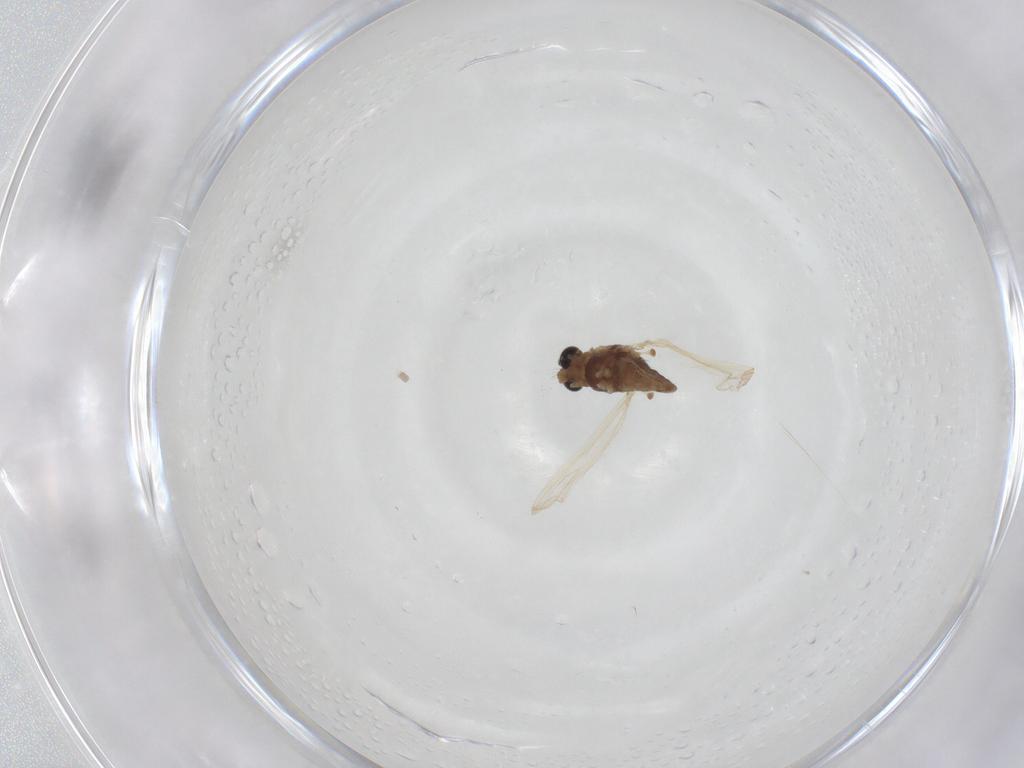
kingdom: Animalia
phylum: Arthropoda
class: Insecta
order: Diptera
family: Chironomidae
